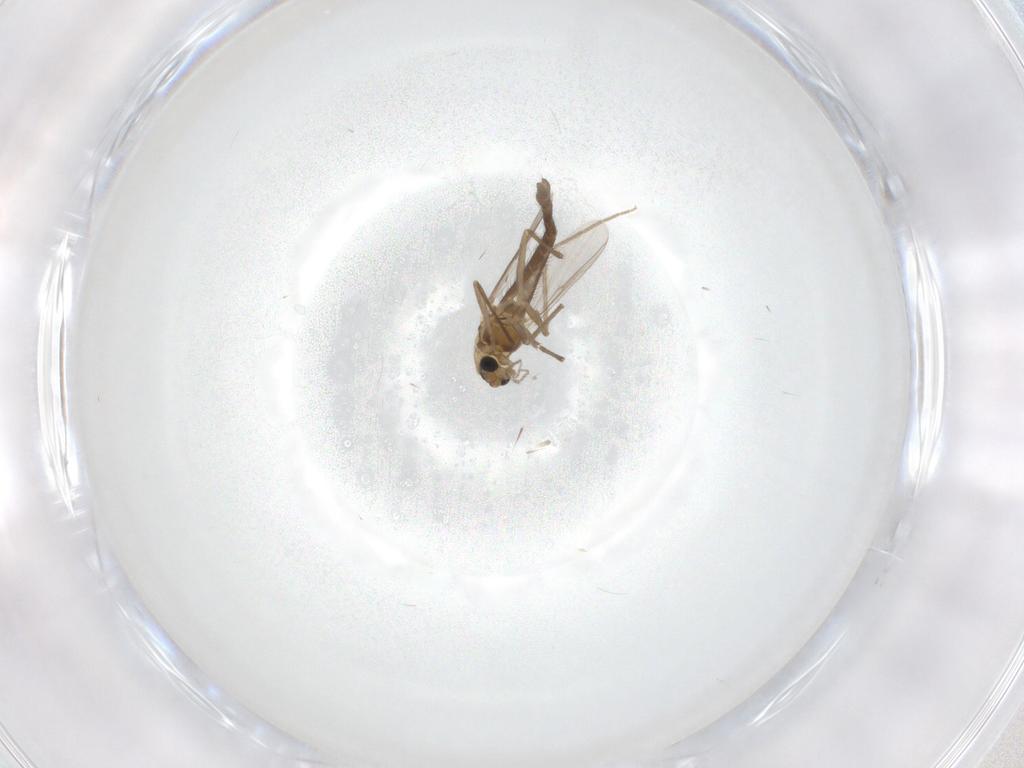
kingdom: Animalia
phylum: Arthropoda
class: Insecta
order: Diptera
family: Chironomidae
